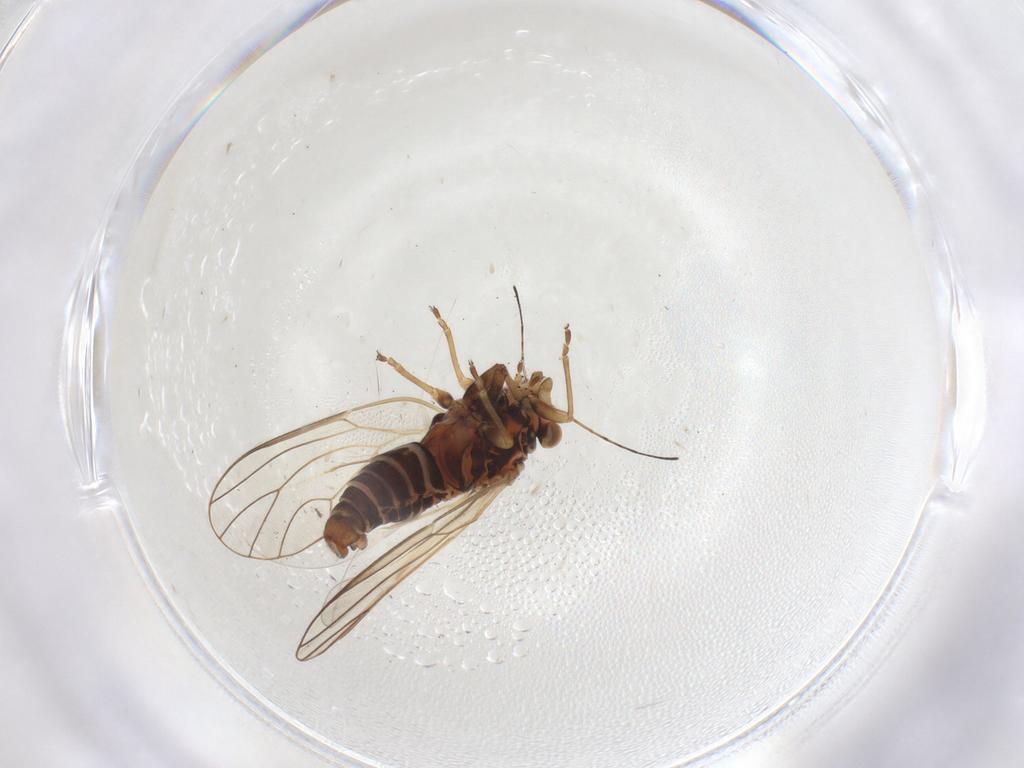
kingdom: Animalia
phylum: Arthropoda
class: Insecta
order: Hemiptera
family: Psyllidae
